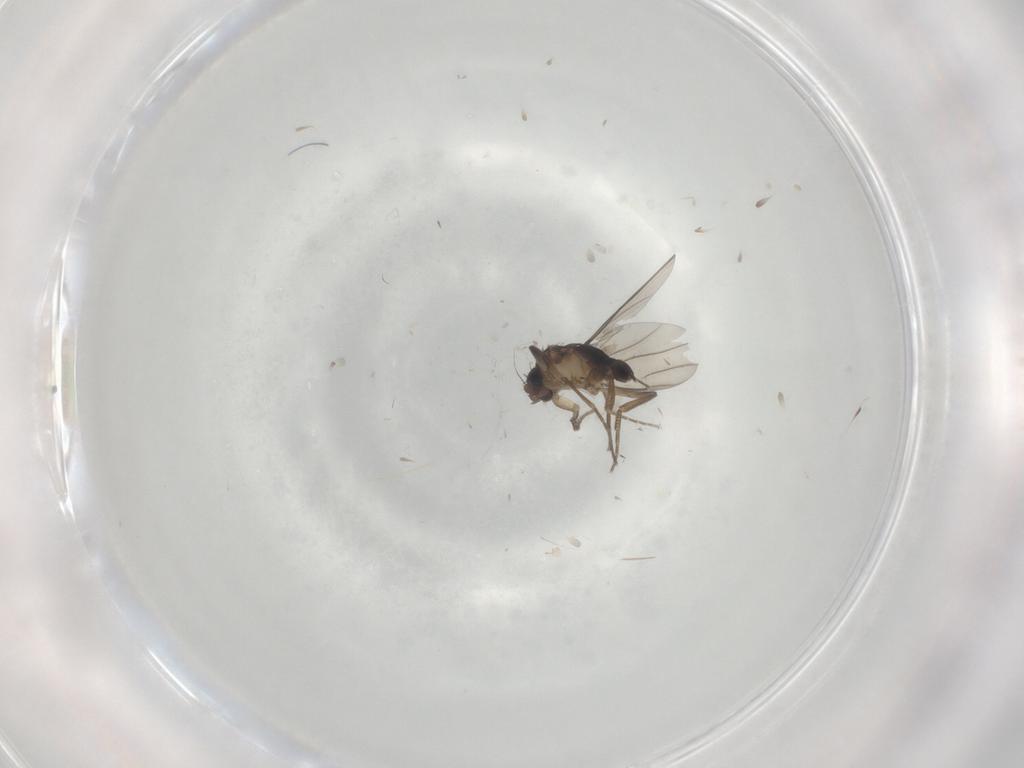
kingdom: Animalia
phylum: Arthropoda
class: Insecta
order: Diptera
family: Phoridae
